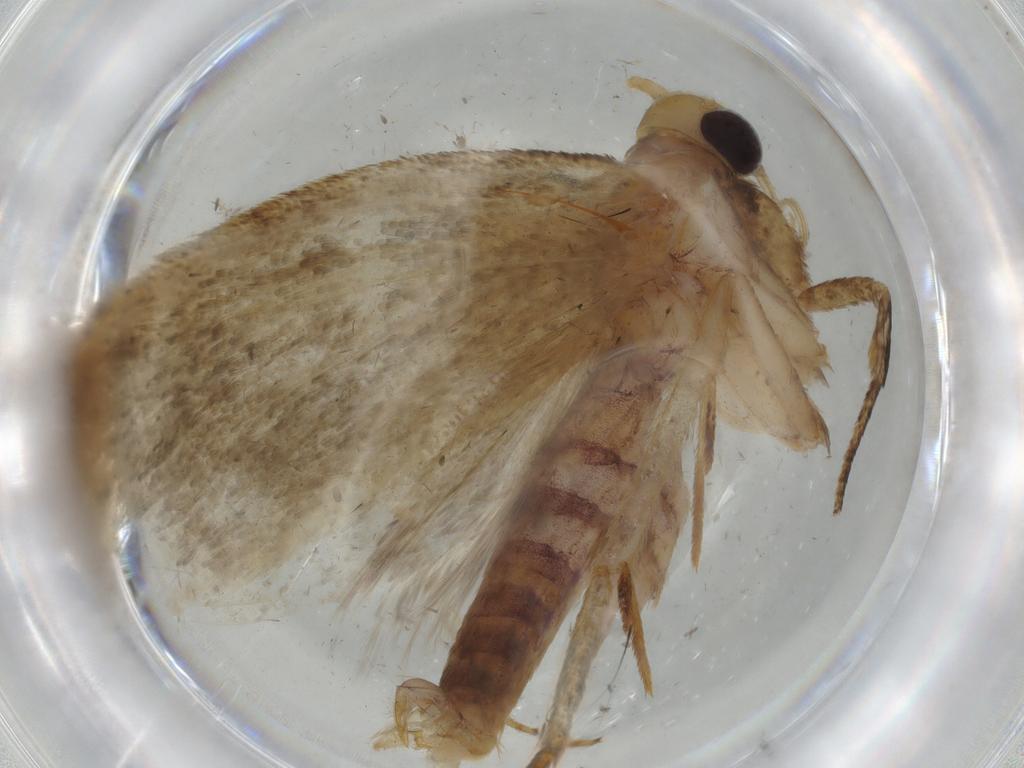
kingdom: Animalia
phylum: Arthropoda
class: Insecta
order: Lepidoptera
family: Oecophoridae
